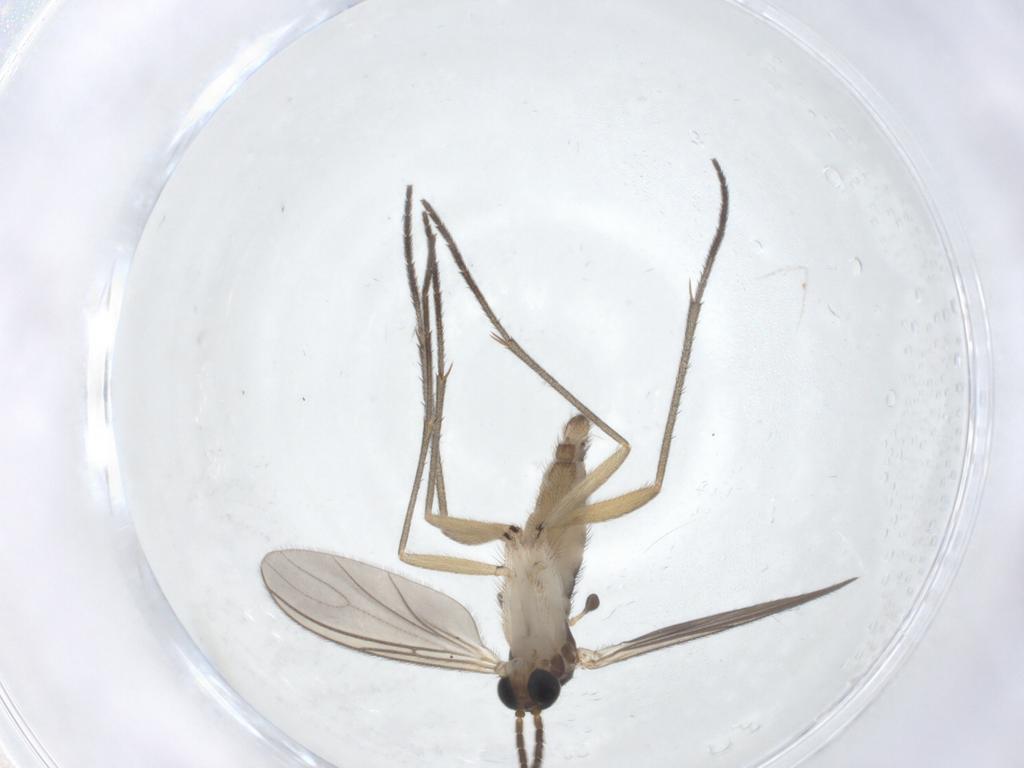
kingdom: Animalia
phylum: Arthropoda
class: Insecta
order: Diptera
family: Sciaridae
